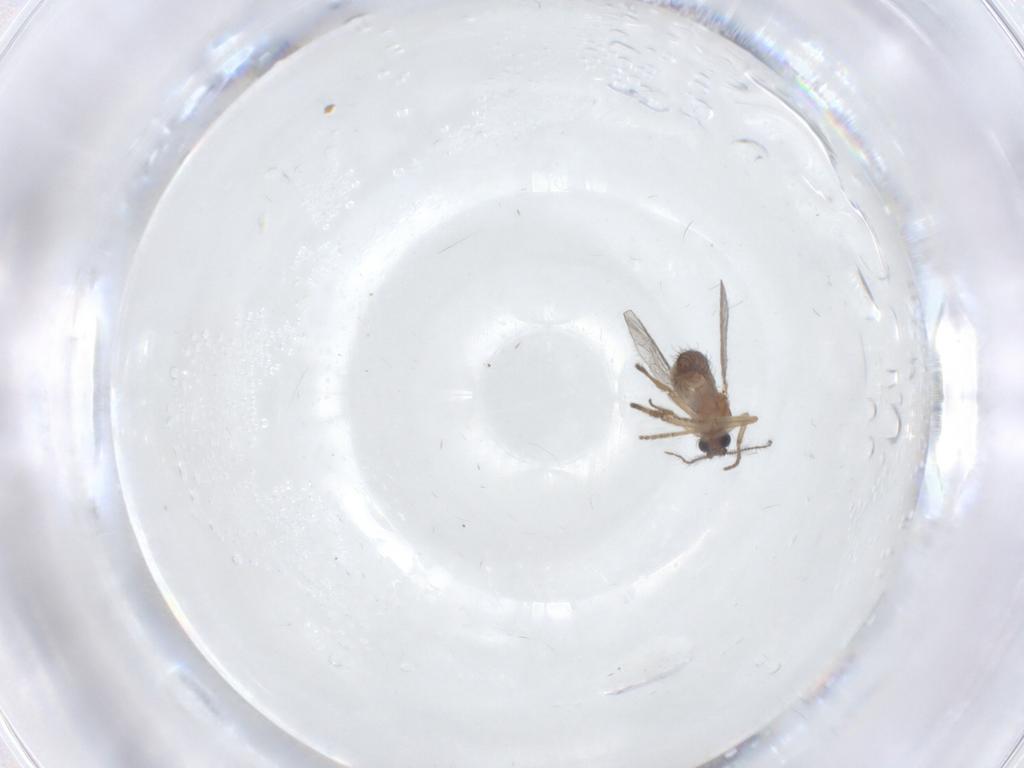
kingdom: Animalia
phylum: Arthropoda
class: Insecta
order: Diptera
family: Ceratopogonidae
